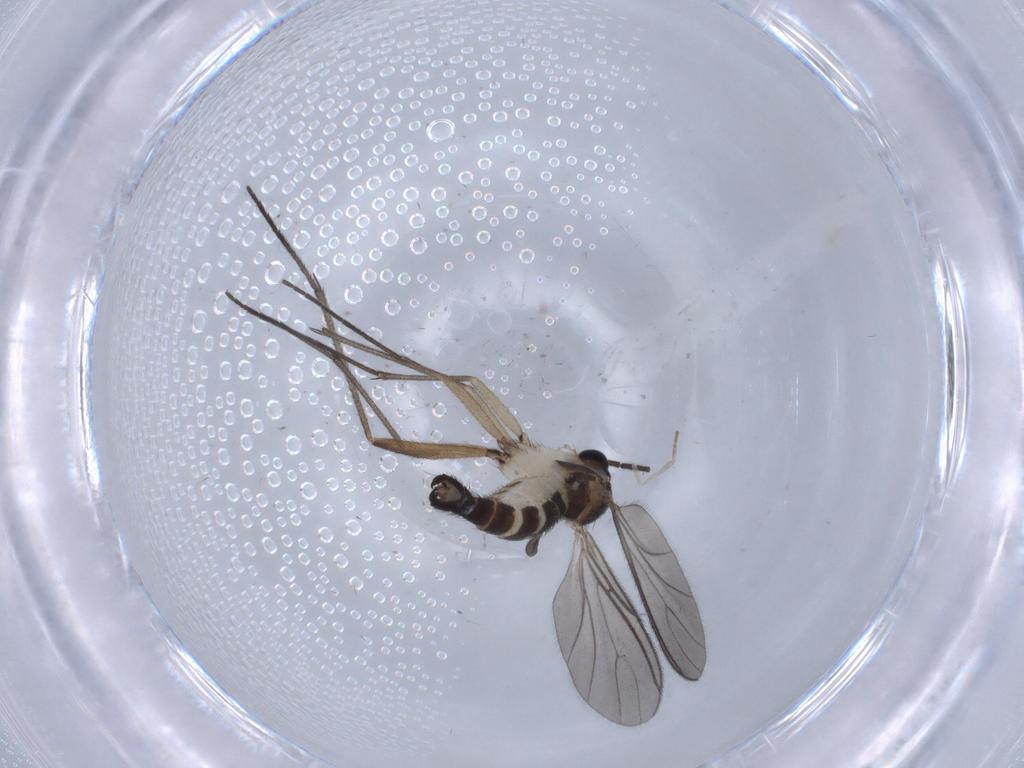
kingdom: Animalia
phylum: Arthropoda
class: Insecta
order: Diptera
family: Sciaridae
